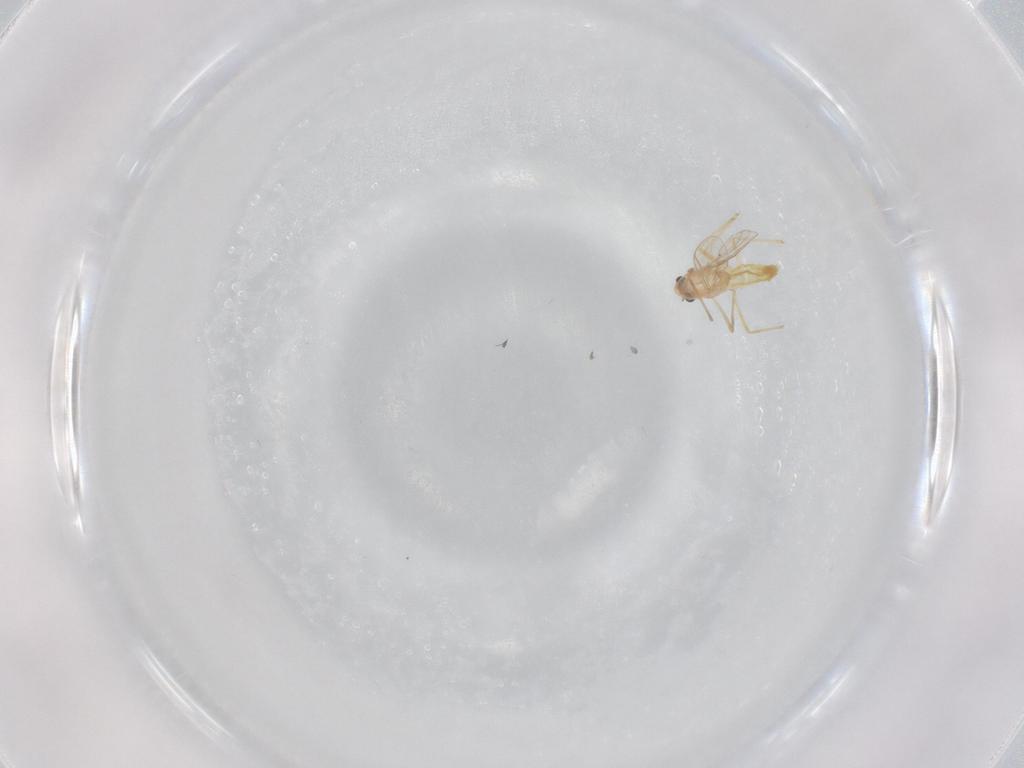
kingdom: Animalia
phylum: Arthropoda
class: Insecta
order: Diptera
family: Chironomidae
